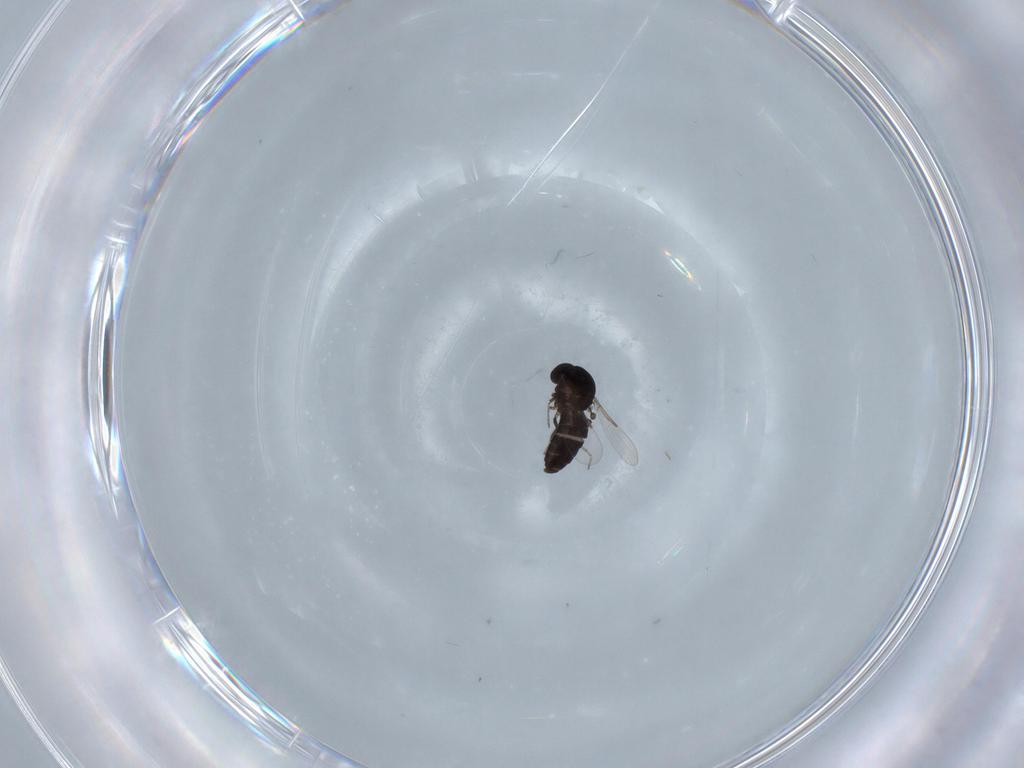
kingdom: Animalia
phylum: Arthropoda
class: Insecta
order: Diptera
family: Ceratopogonidae
